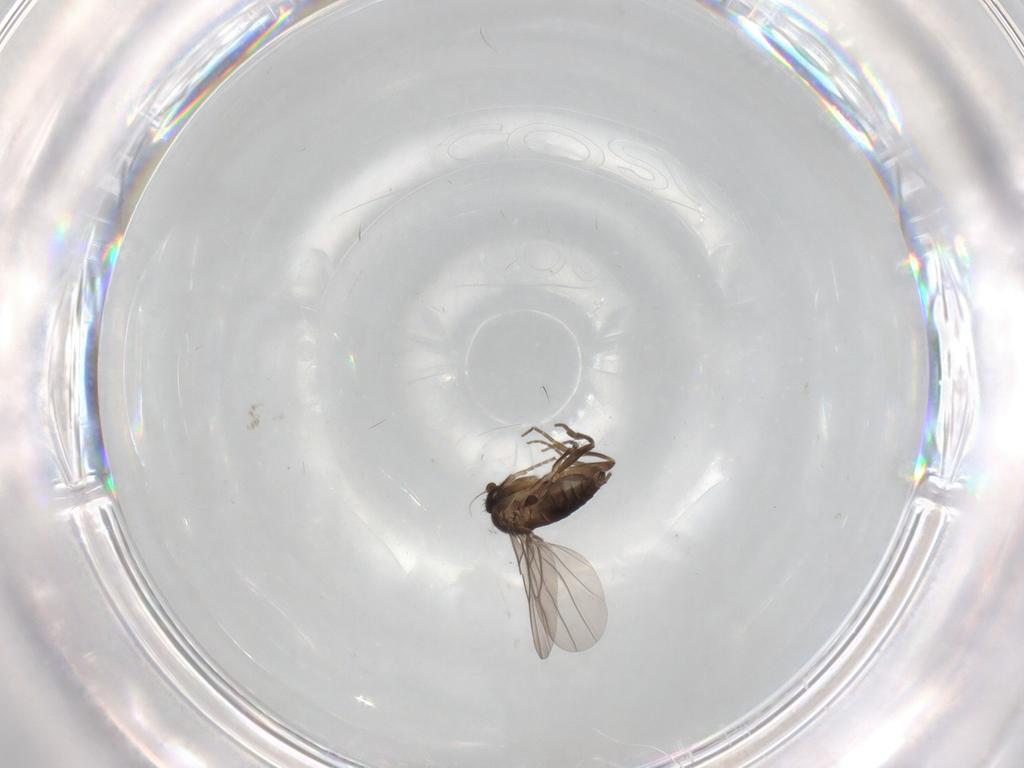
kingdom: Animalia
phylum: Arthropoda
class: Insecta
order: Diptera
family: Phoridae
